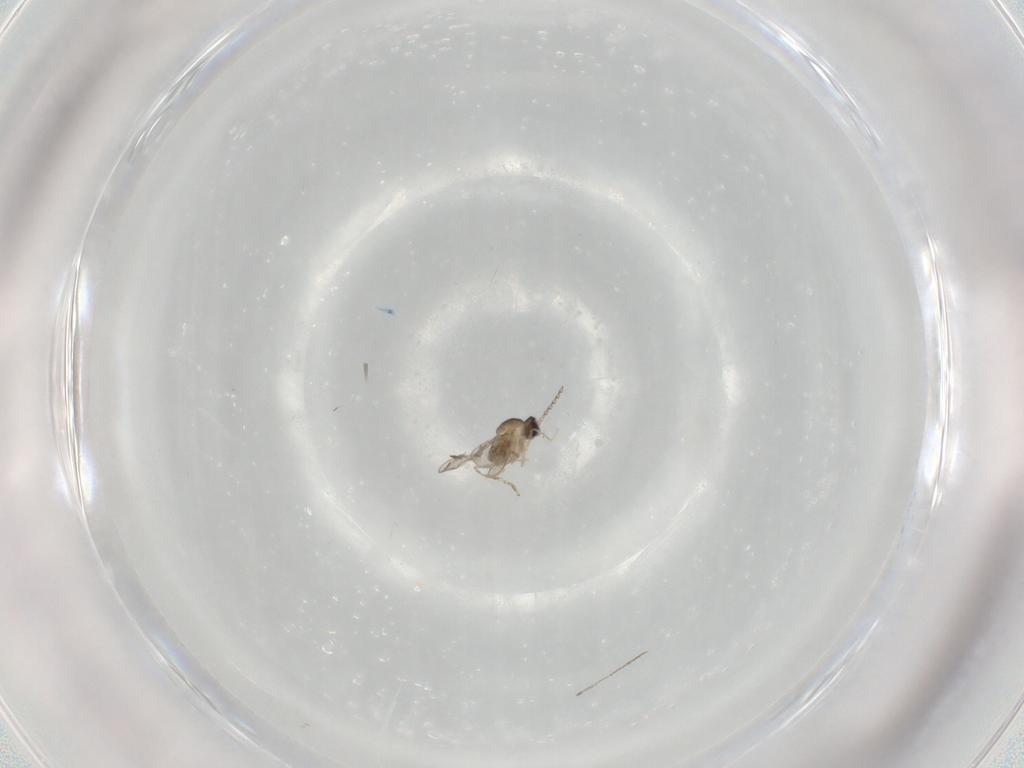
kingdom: Animalia
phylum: Arthropoda
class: Insecta
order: Diptera
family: Cecidomyiidae
